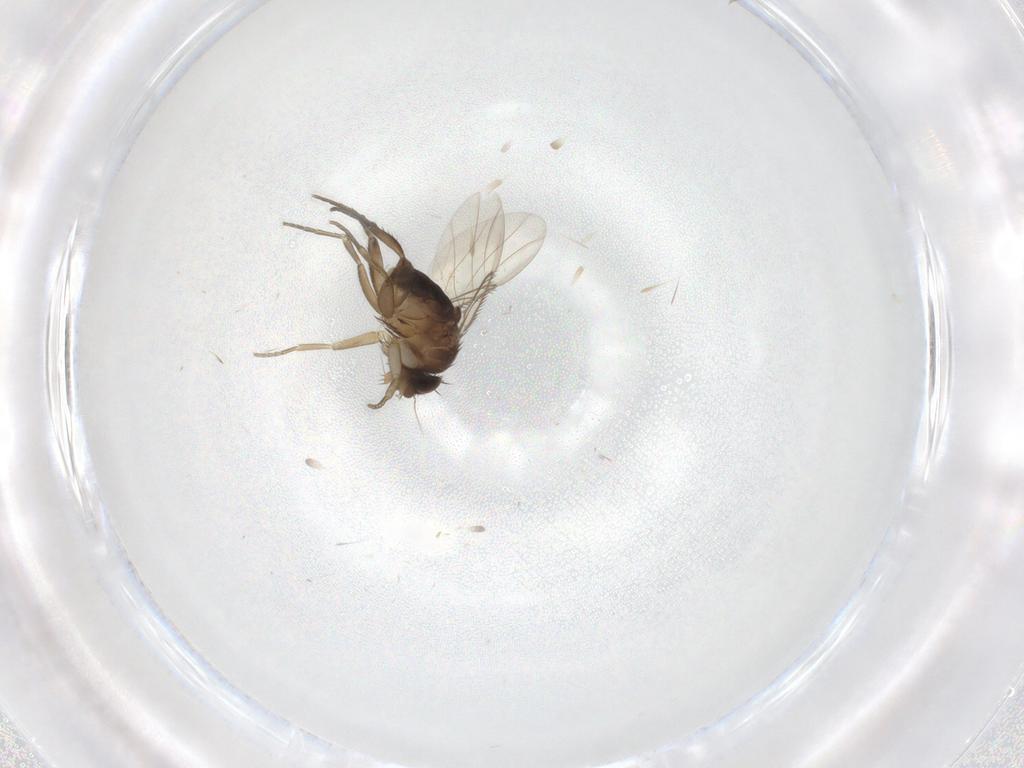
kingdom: Animalia
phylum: Arthropoda
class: Insecta
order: Diptera
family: Phoridae
